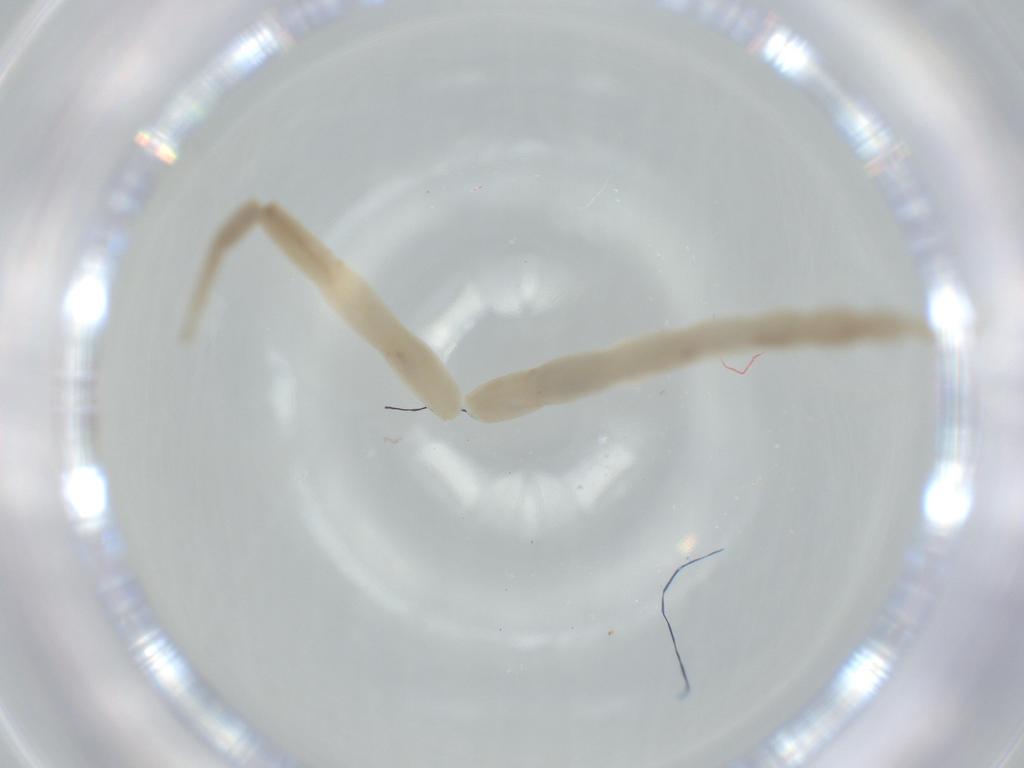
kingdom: Animalia
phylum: Arthropoda
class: Insecta
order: Diptera
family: Ceratopogonidae
